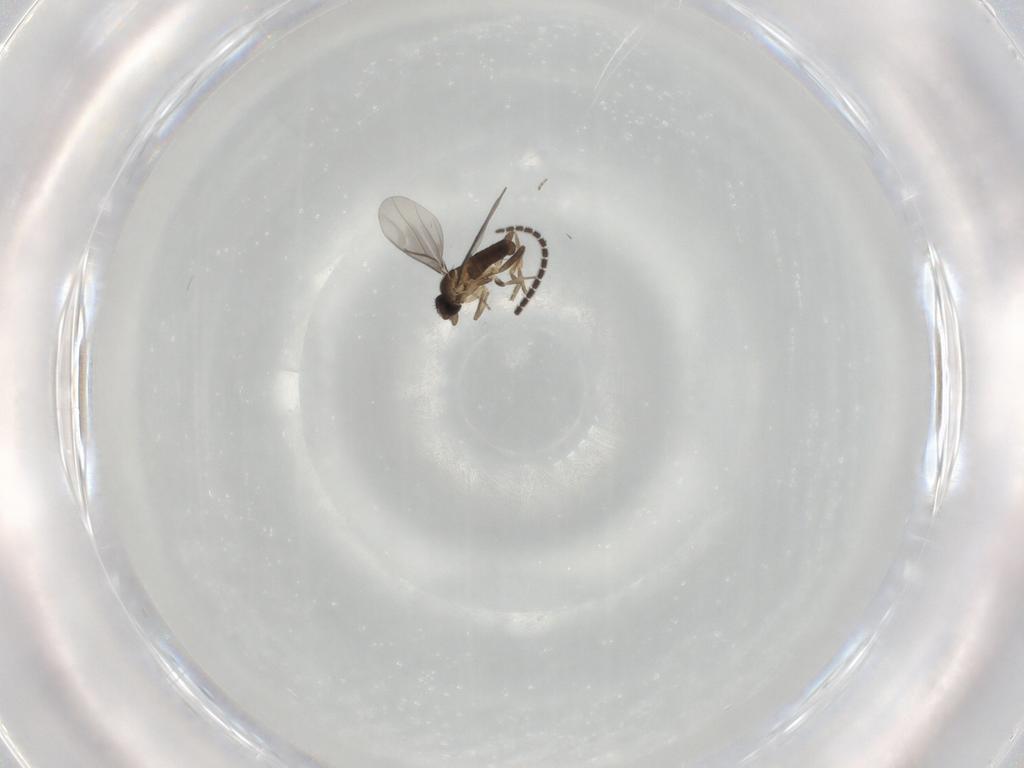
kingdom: Animalia
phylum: Arthropoda
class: Insecta
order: Diptera
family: Sciaridae
